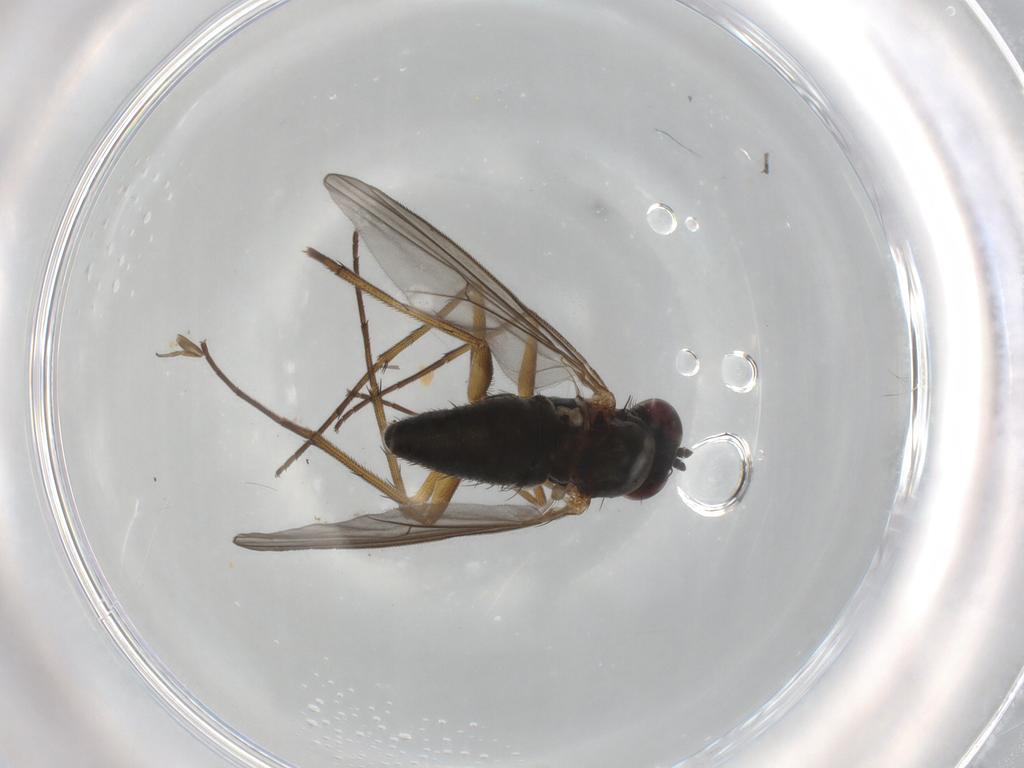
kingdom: Animalia
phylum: Arthropoda
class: Insecta
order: Diptera
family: Dolichopodidae
